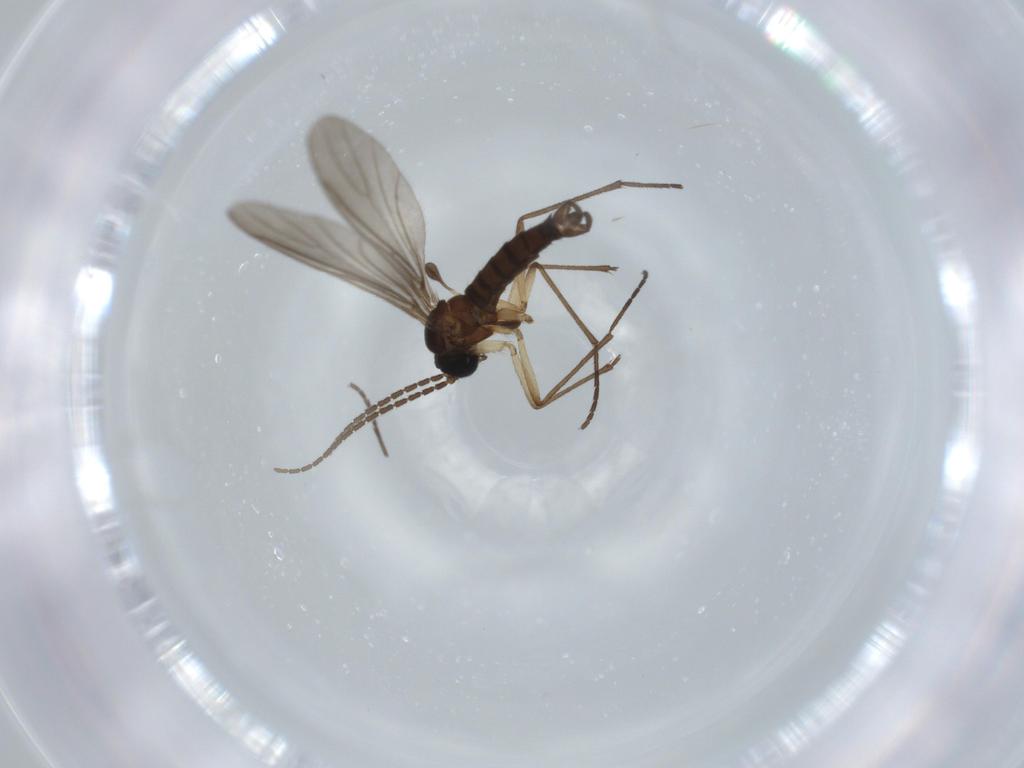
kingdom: Animalia
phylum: Arthropoda
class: Insecta
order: Diptera
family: Sciaridae
